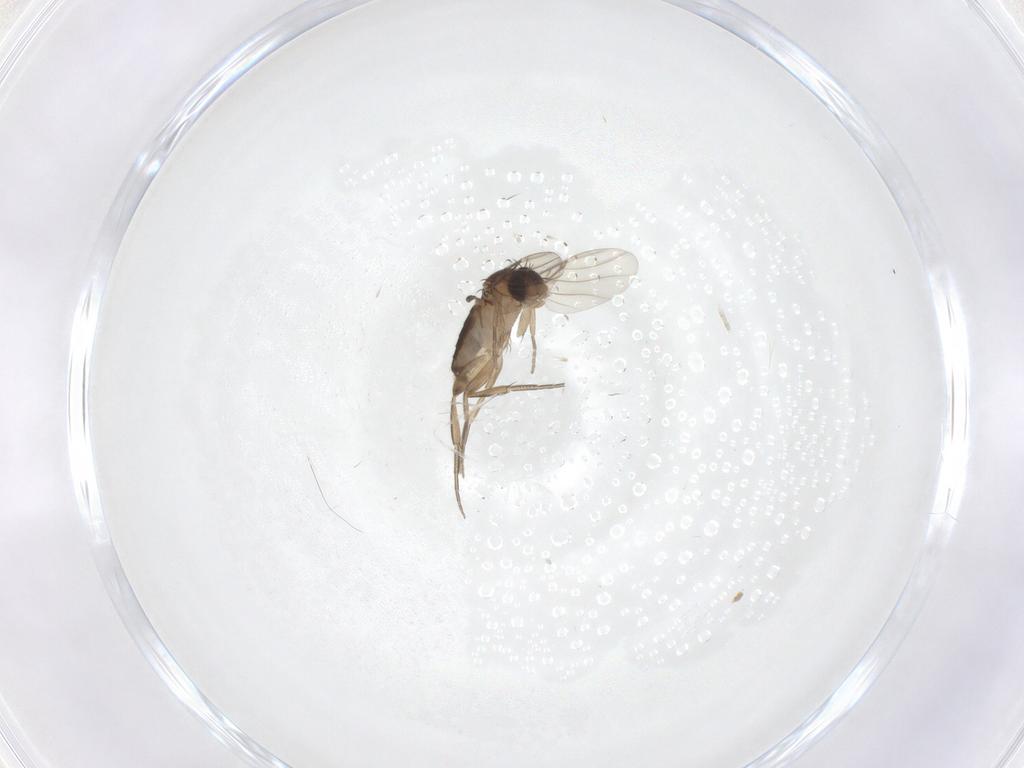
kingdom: Animalia
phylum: Arthropoda
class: Insecta
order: Diptera
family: Phoridae
